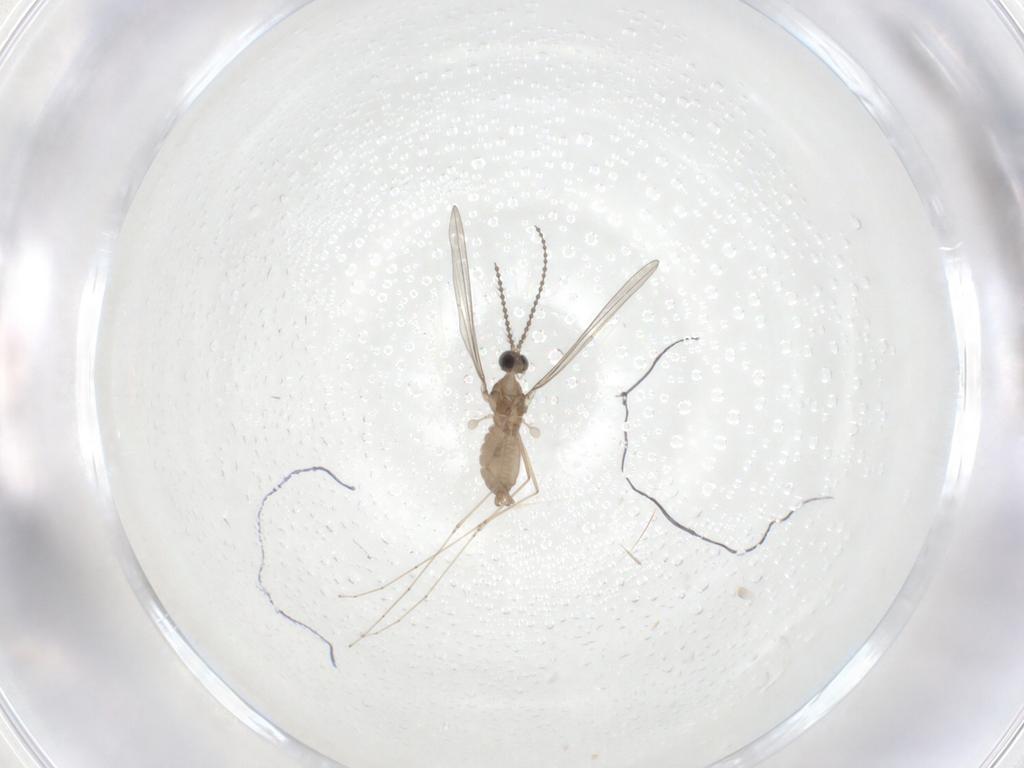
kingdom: Animalia
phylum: Arthropoda
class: Insecta
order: Diptera
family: Cecidomyiidae
